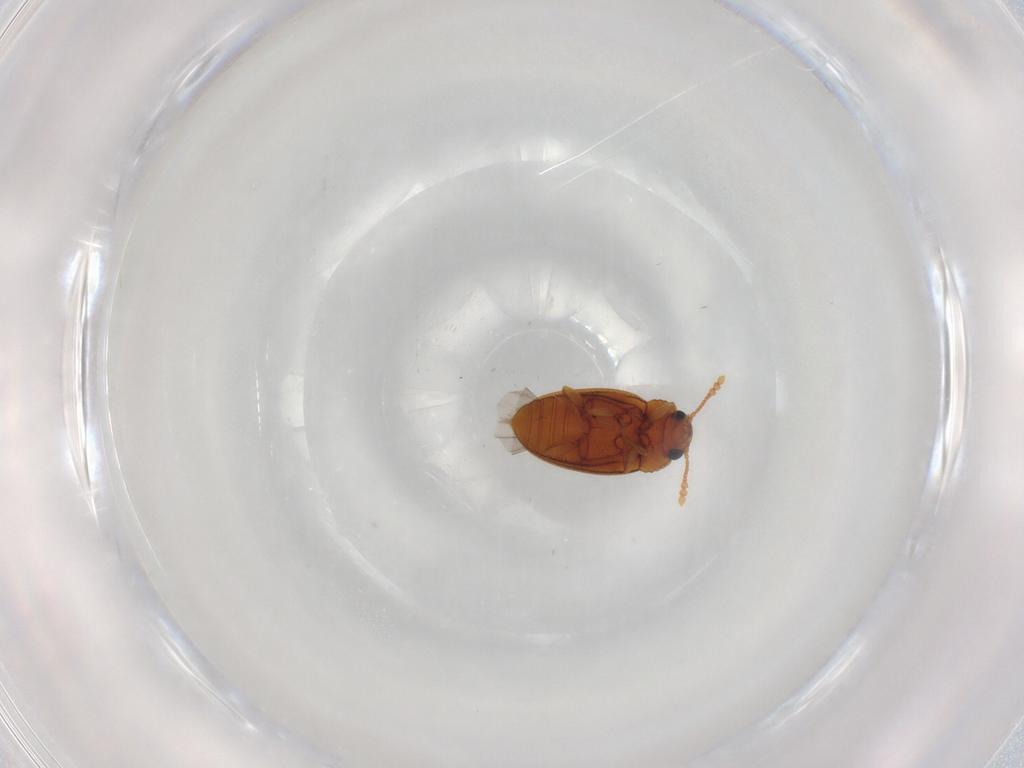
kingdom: Animalia
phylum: Arthropoda
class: Insecta
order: Coleoptera
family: Erotylidae
